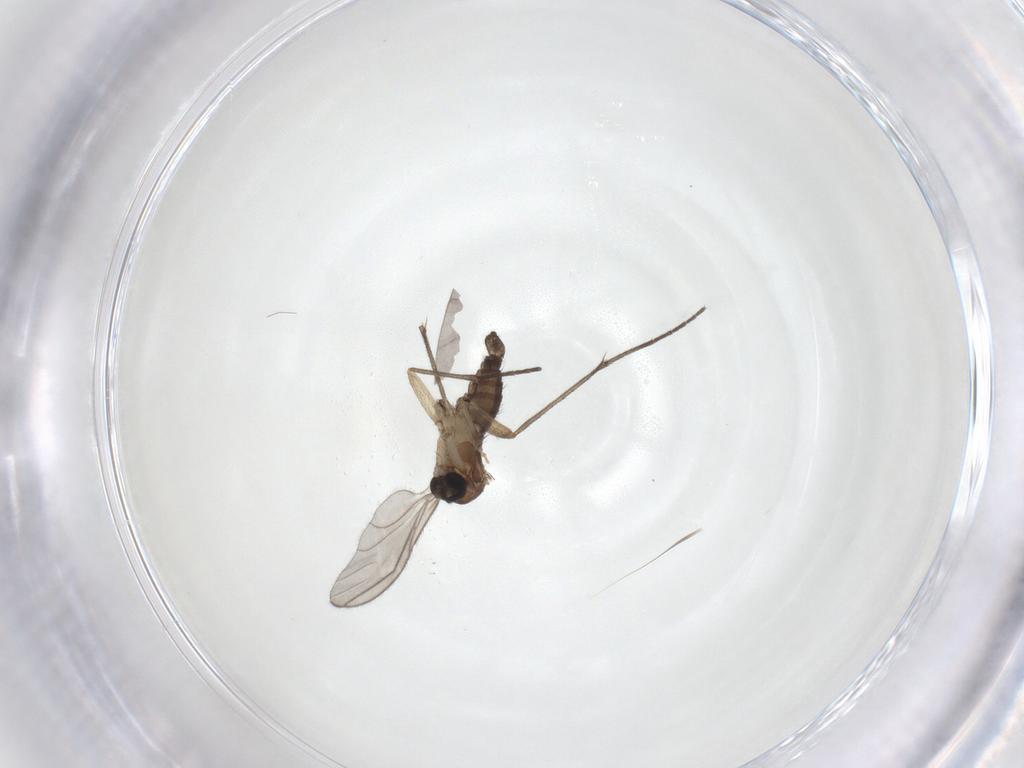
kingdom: Animalia
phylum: Arthropoda
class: Insecta
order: Diptera
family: Sciaridae
